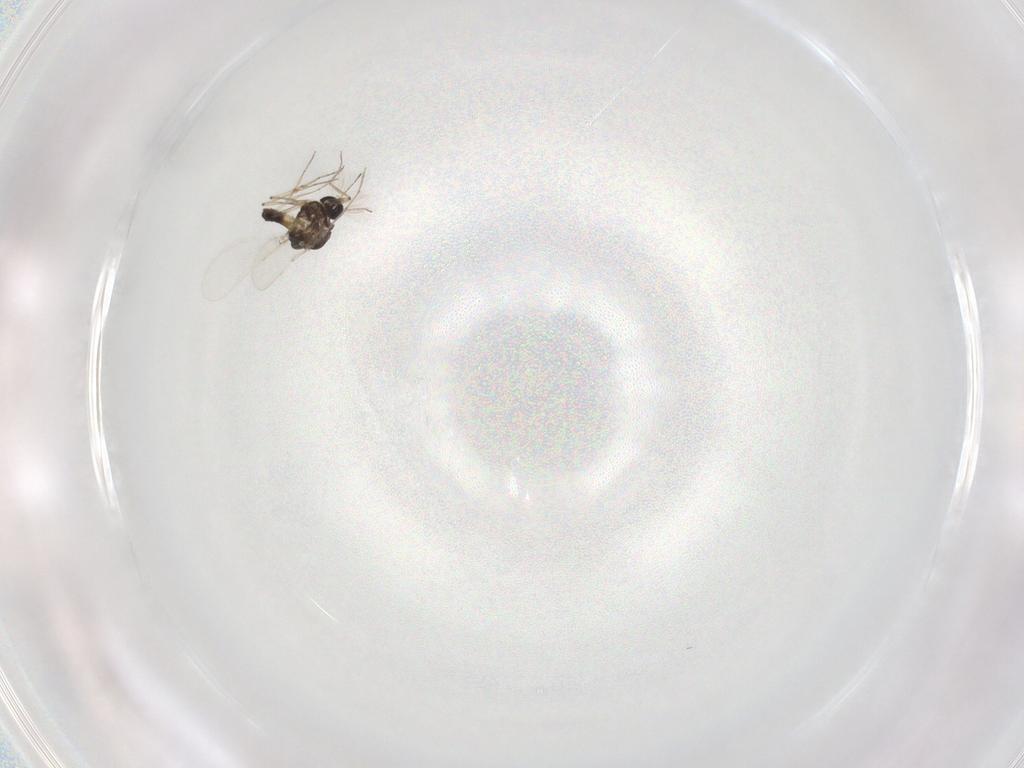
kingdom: Animalia
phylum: Arthropoda
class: Insecta
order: Diptera
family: Chironomidae
